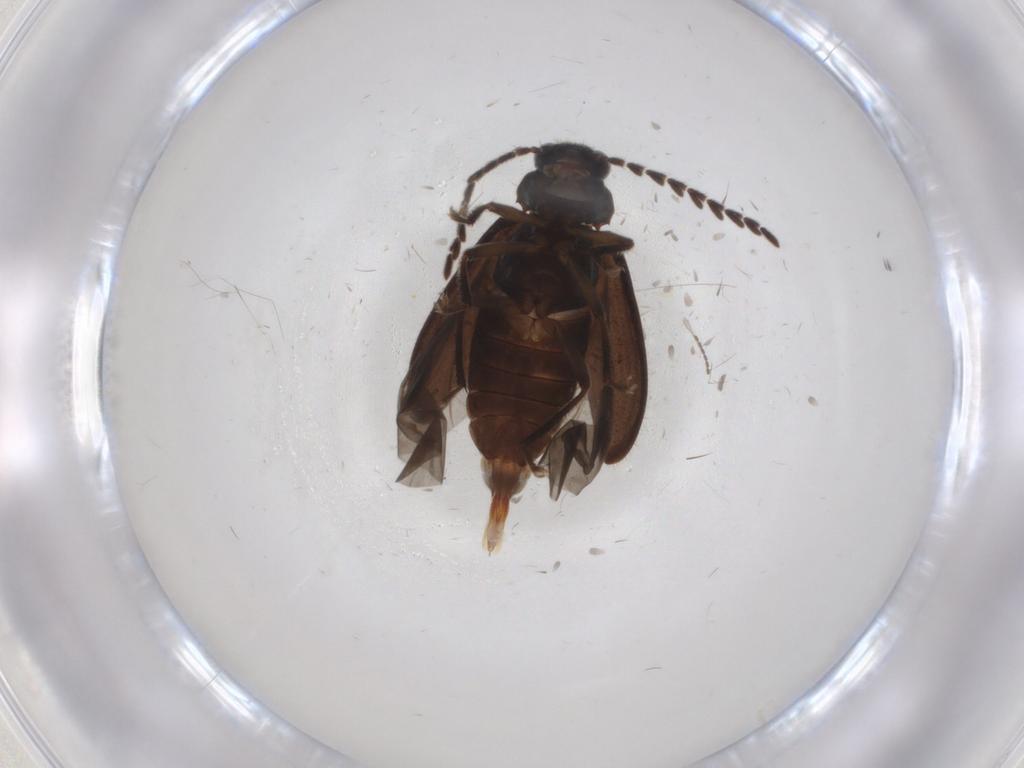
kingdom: Animalia
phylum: Arthropoda
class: Insecta
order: Coleoptera
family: Ptilodactylidae
